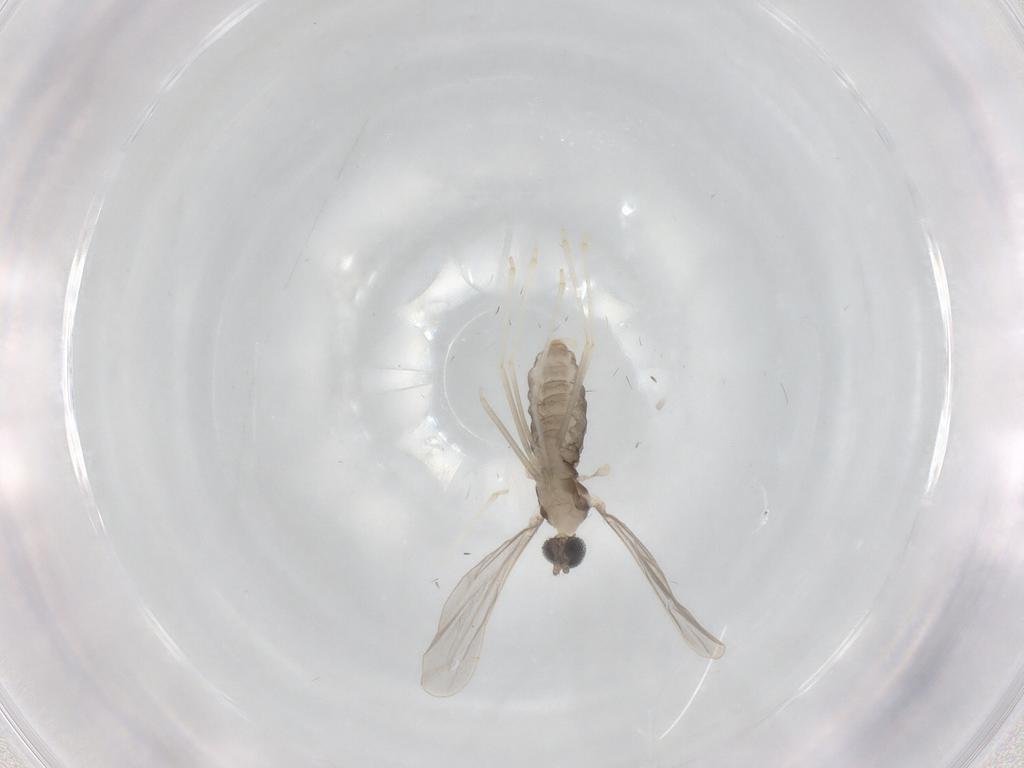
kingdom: Animalia
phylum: Arthropoda
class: Insecta
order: Diptera
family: Cecidomyiidae
